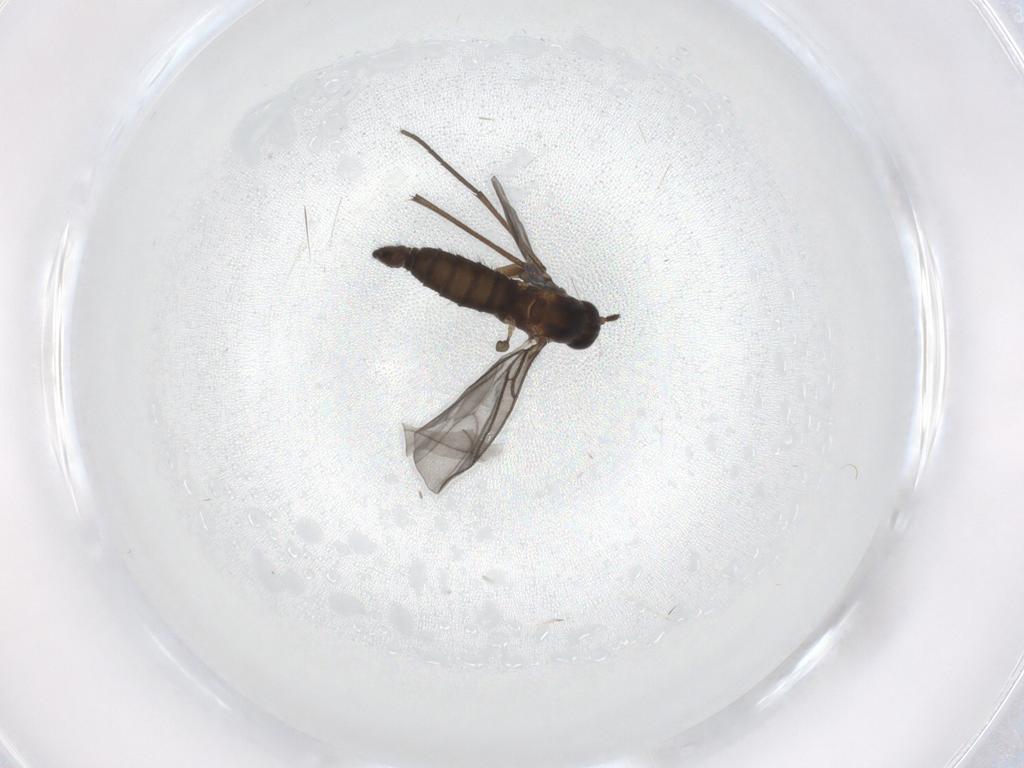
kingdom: Animalia
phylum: Arthropoda
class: Insecta
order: Diptera
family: Sciaridae
